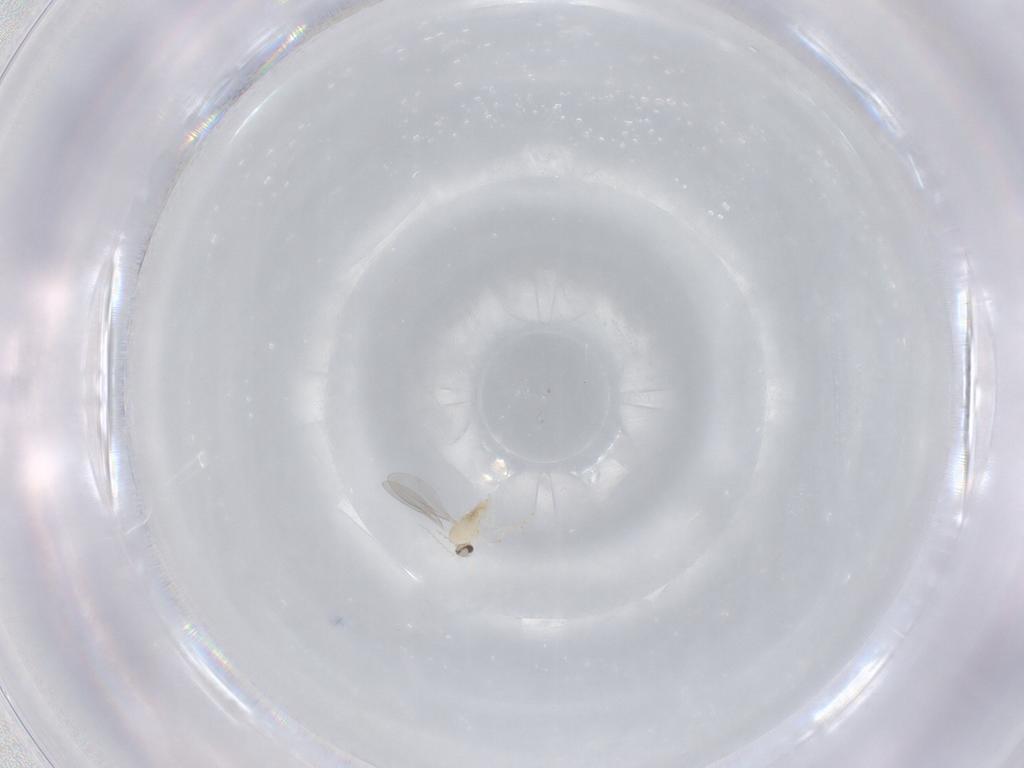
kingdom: Animalia
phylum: Arthropoda
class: Insecta
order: Diptera
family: Cecidomyiidae
